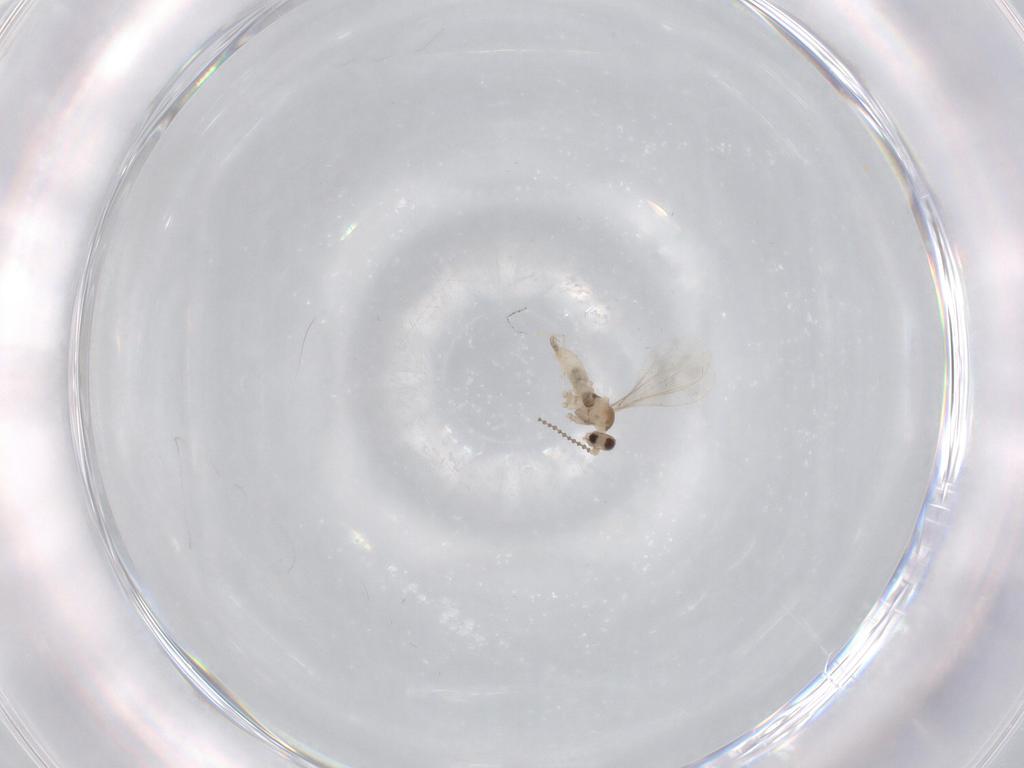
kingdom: Animalia
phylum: Arthropoda
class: Insecta
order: Diptera
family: Cecidomyiidae
